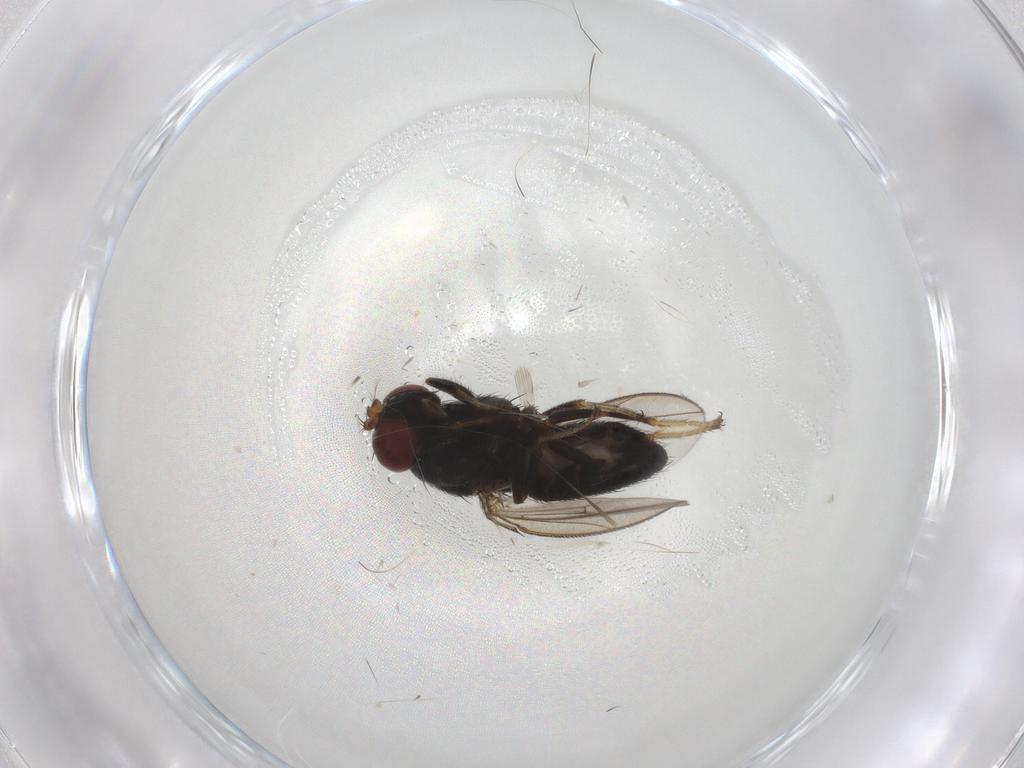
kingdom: Animalia
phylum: Arthropoda
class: Insecta
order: Diptera
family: Ephydridae
